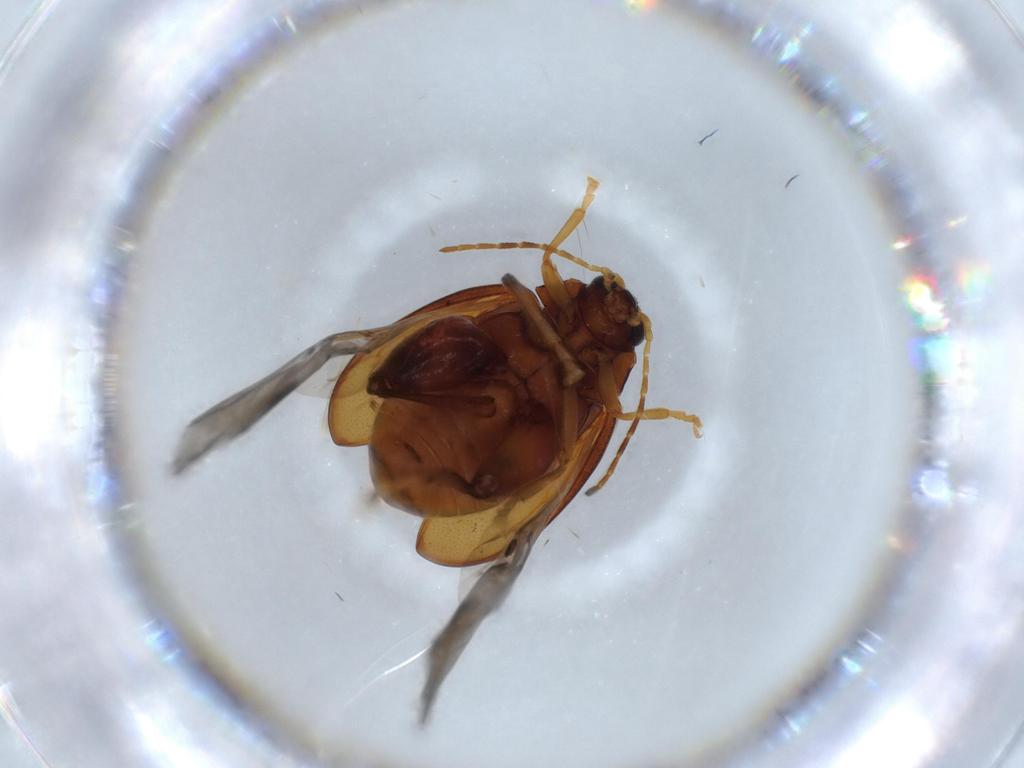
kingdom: Animalia
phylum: Arthropoda
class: Insecta
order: Coleoptera
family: Chrysomelidae
